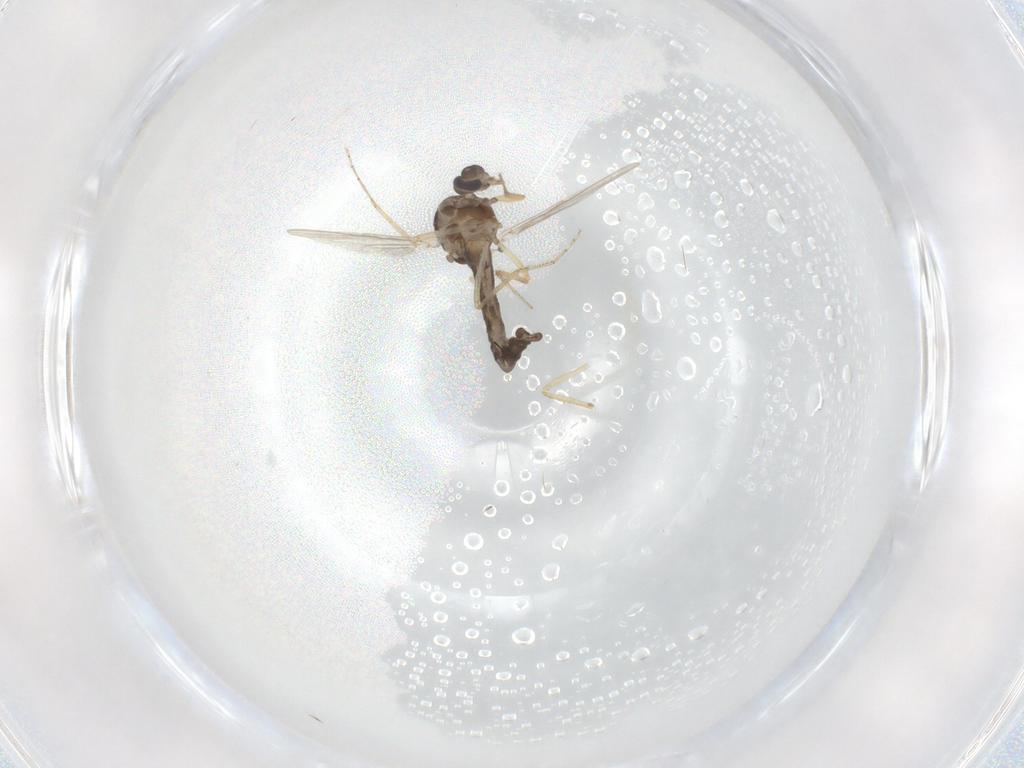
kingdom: Animalia
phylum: Arthropoda
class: Insecta
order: Diptera
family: Ceratopogonidae
